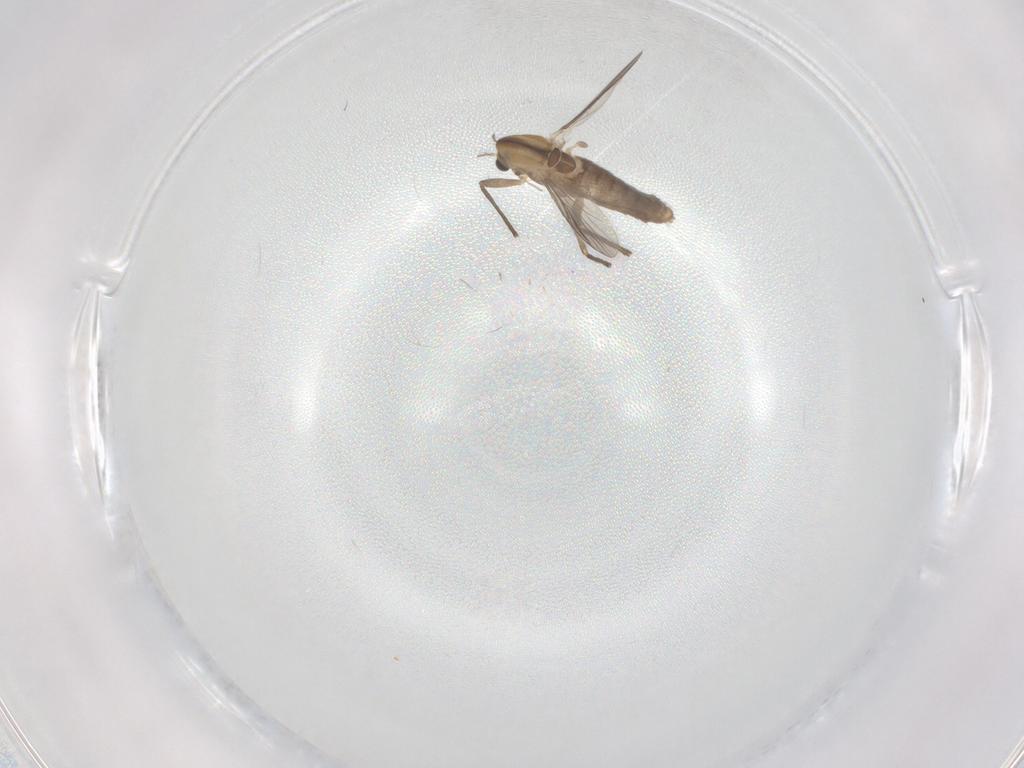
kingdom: Animalia
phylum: Arthropoda
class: Insecta
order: Diptera
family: Chironomidae
